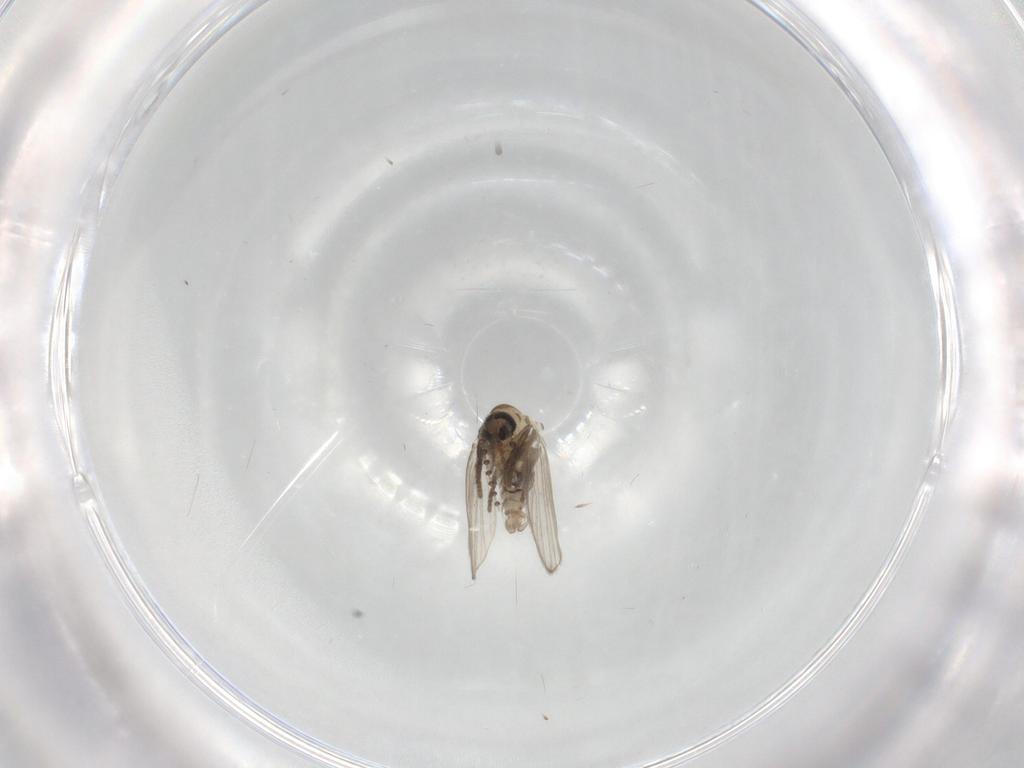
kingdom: Animalia
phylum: Arthropoda
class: Insecta
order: Diptera
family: Psychodidae
